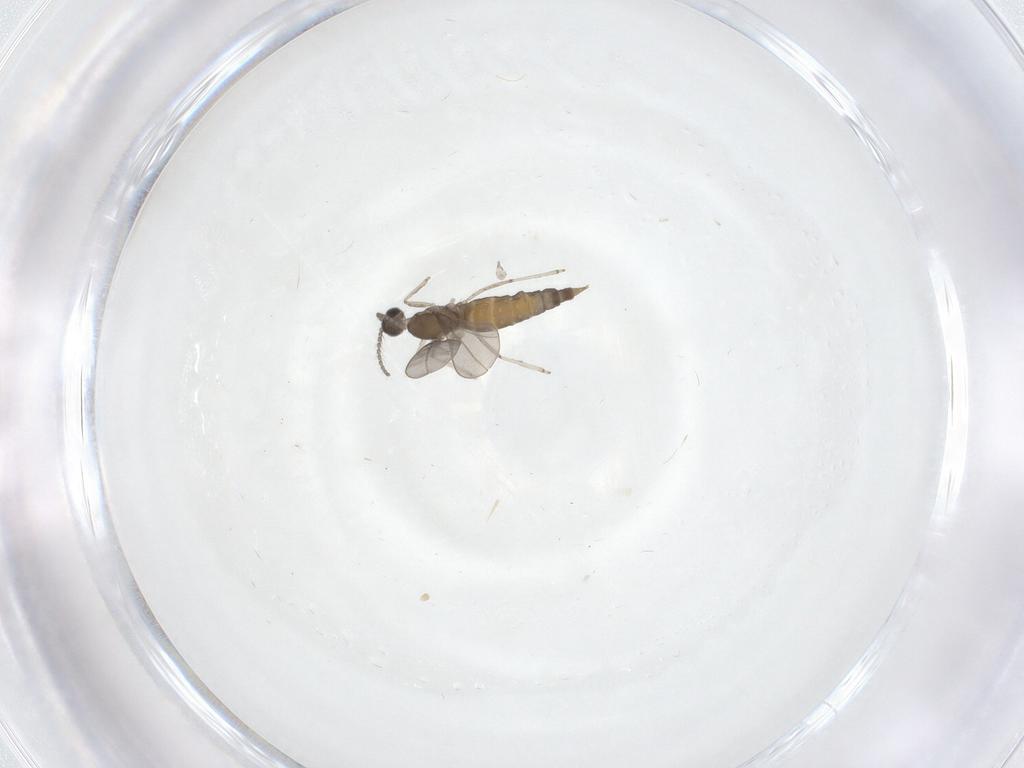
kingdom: Animalia
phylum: Arthropoda
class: Insecta
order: Diptera
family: Cecidomyiidae
